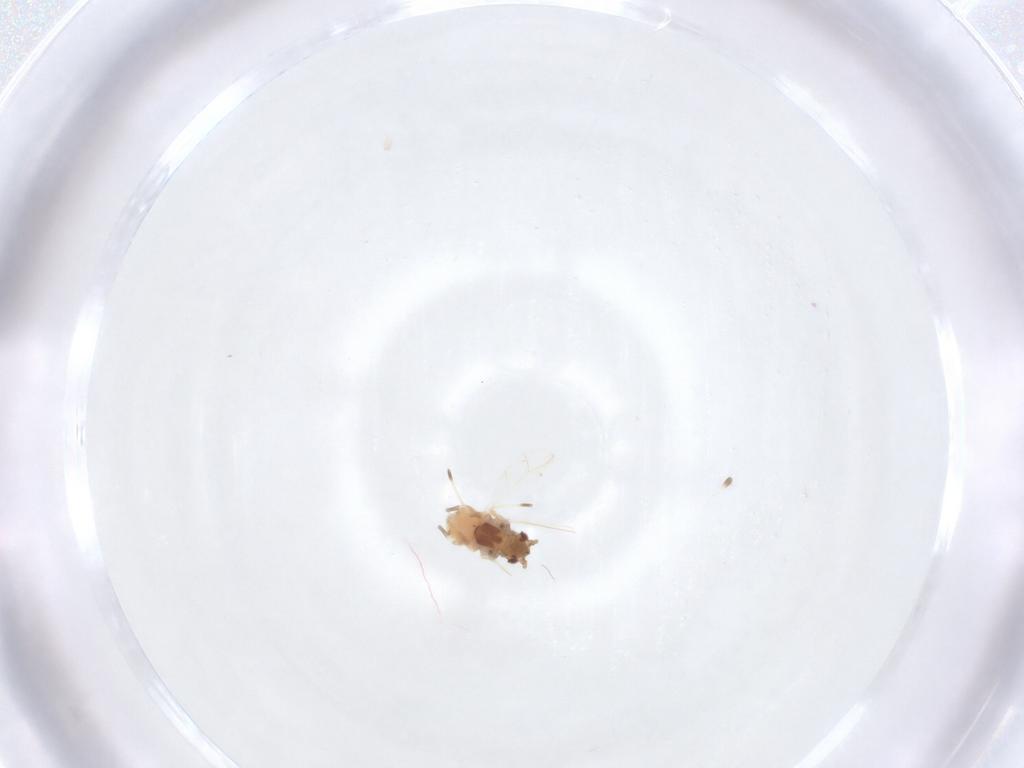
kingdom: Animalia
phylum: Arthropoda
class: Insecta
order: Hemiptera
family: Aphididae
